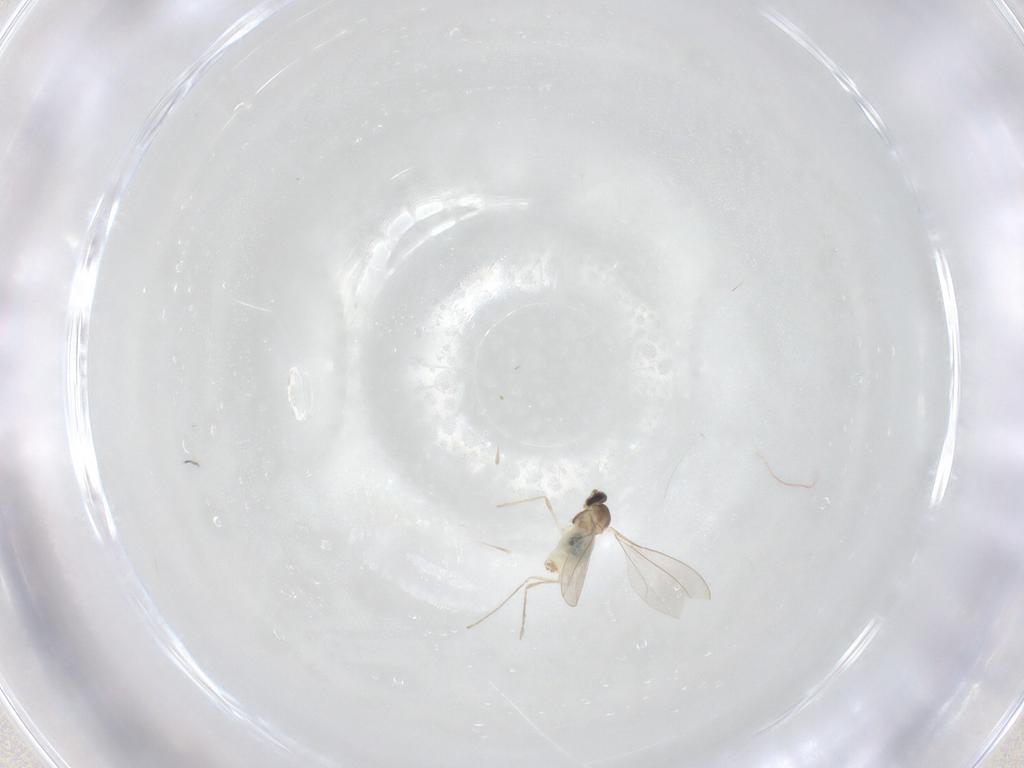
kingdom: Animalia
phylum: Arthropoda
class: Insecta
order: Diptera
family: Cecidomyiidae
